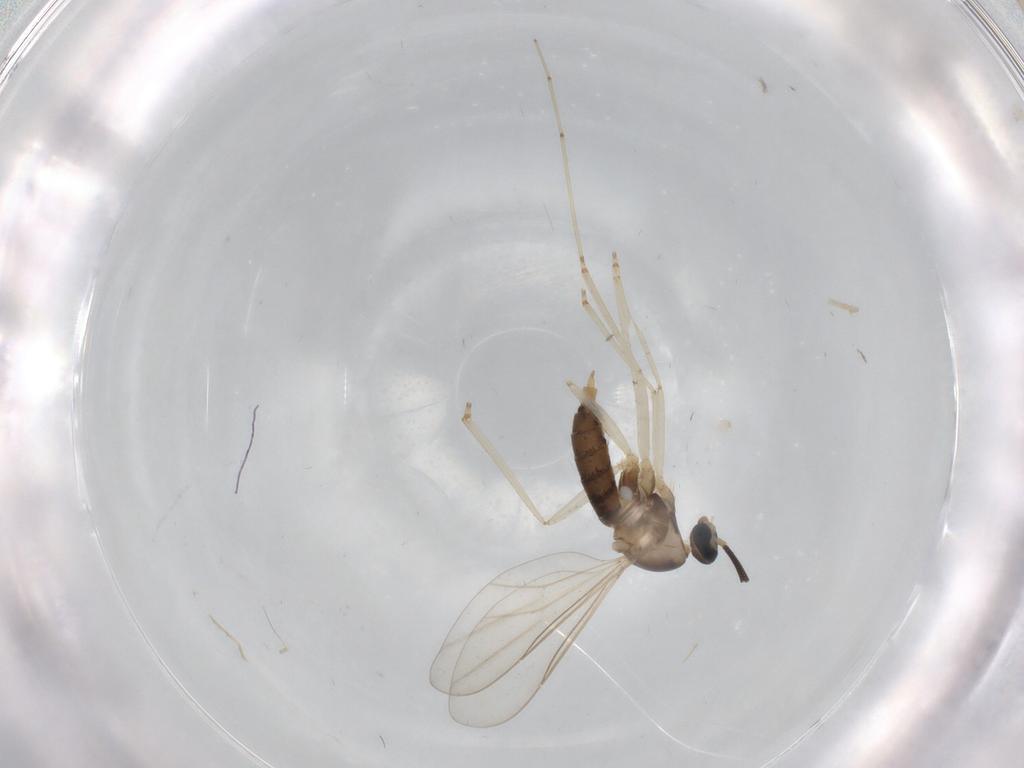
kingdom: Animalia
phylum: Arthropoda
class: Insecta
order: Diptera
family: Cecidomyiidae
